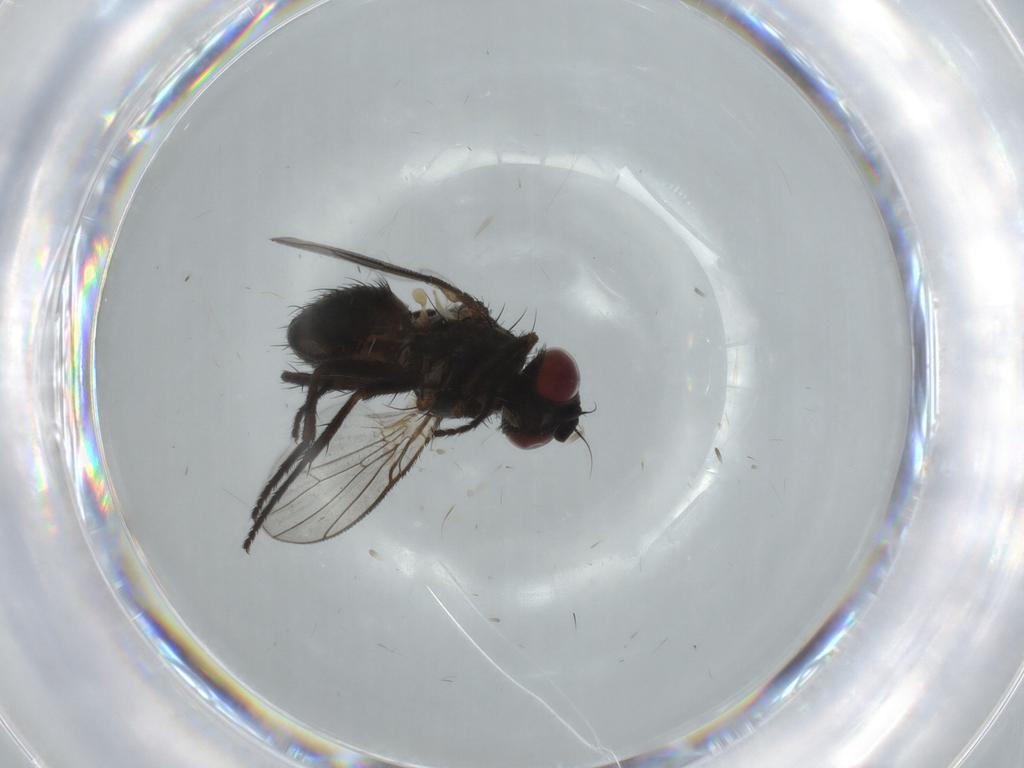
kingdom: Animalia
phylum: Arthropoda
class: Insecta
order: Diptera
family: Muscidae
